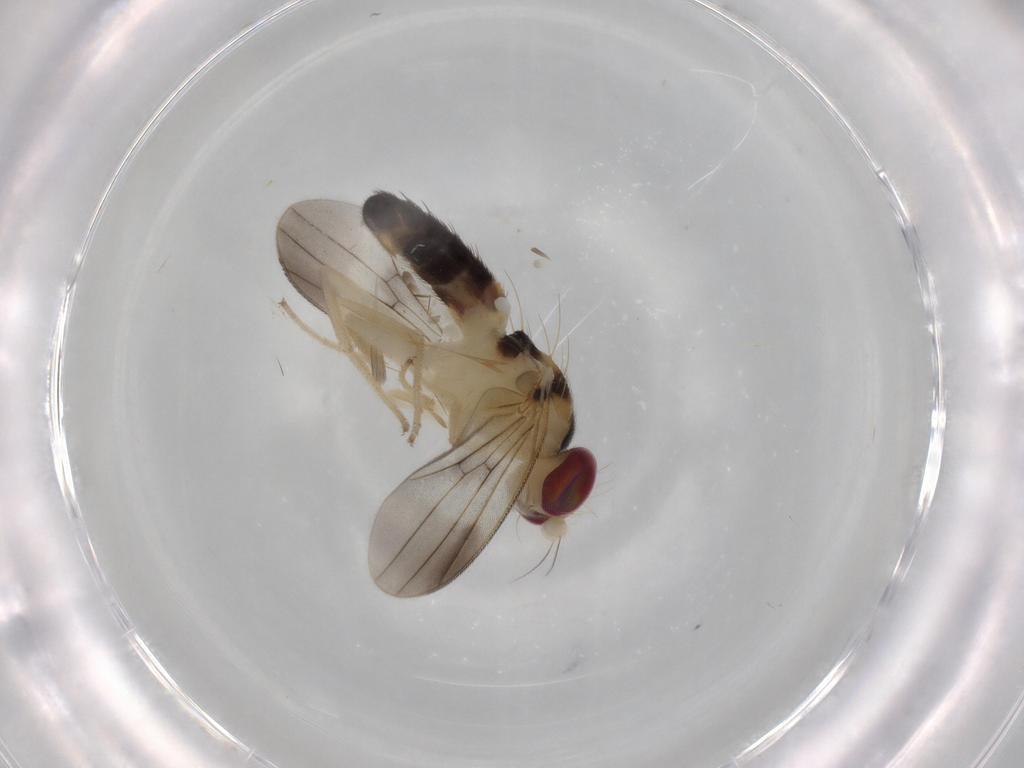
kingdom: Animalia
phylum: Arthropoda
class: Insecta
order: Diptera
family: Clusiidae
